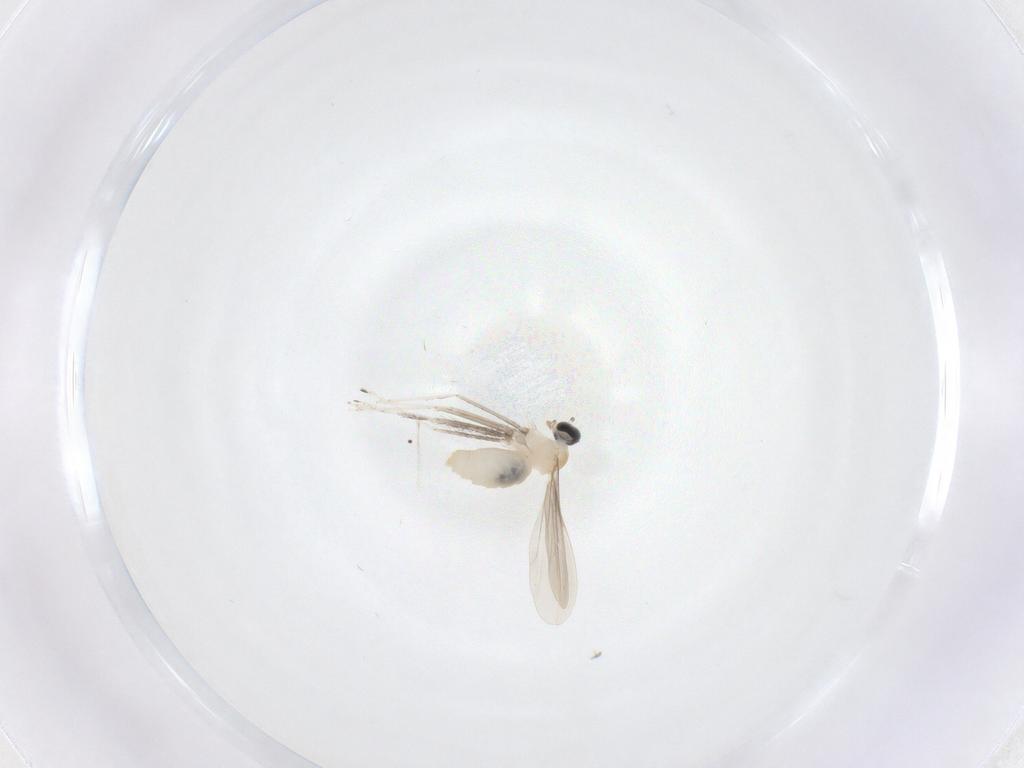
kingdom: Animalia
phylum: Arthropoda
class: Insecta
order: Diptera
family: Cecidomyiidae
